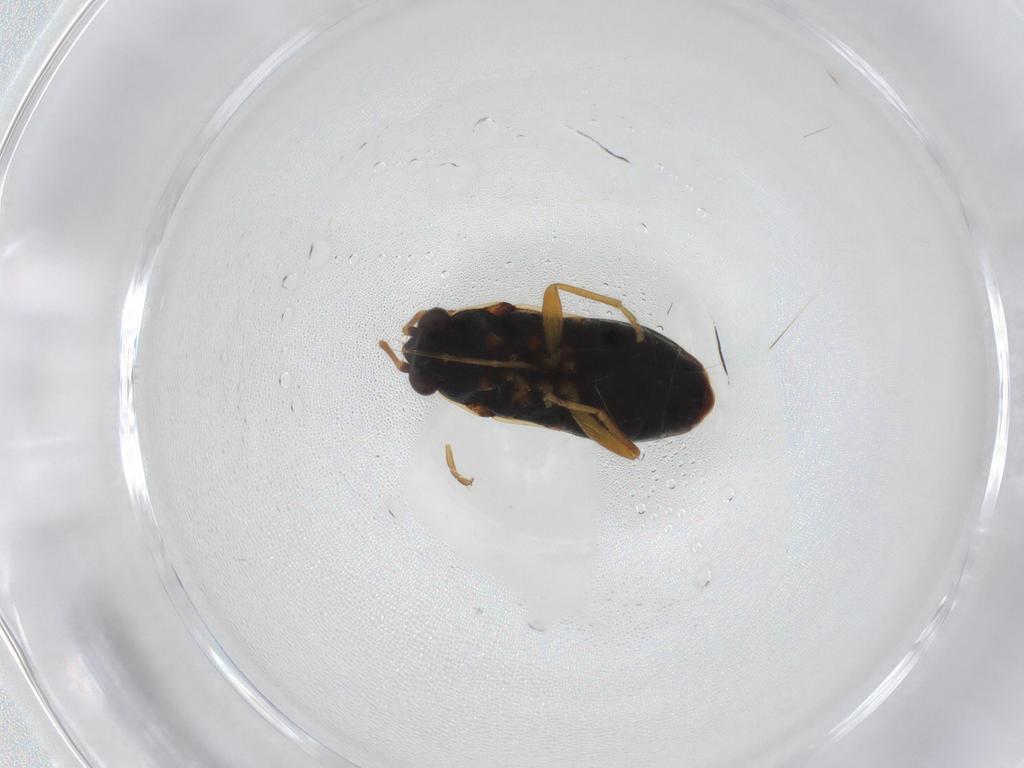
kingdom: Animalia
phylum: Arthropoda
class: Insecta
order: Hemiptera
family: Rhyparochromidae
